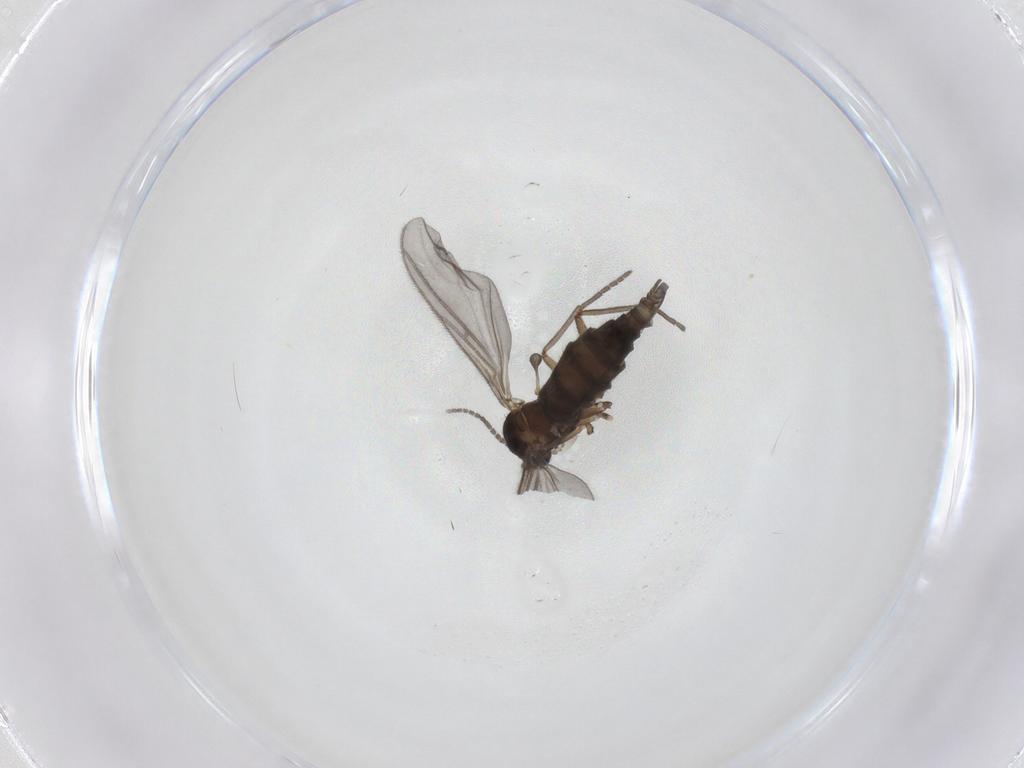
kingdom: Animalia
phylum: Arthropoda
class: Insecta
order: Diptera
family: Sciaridae
